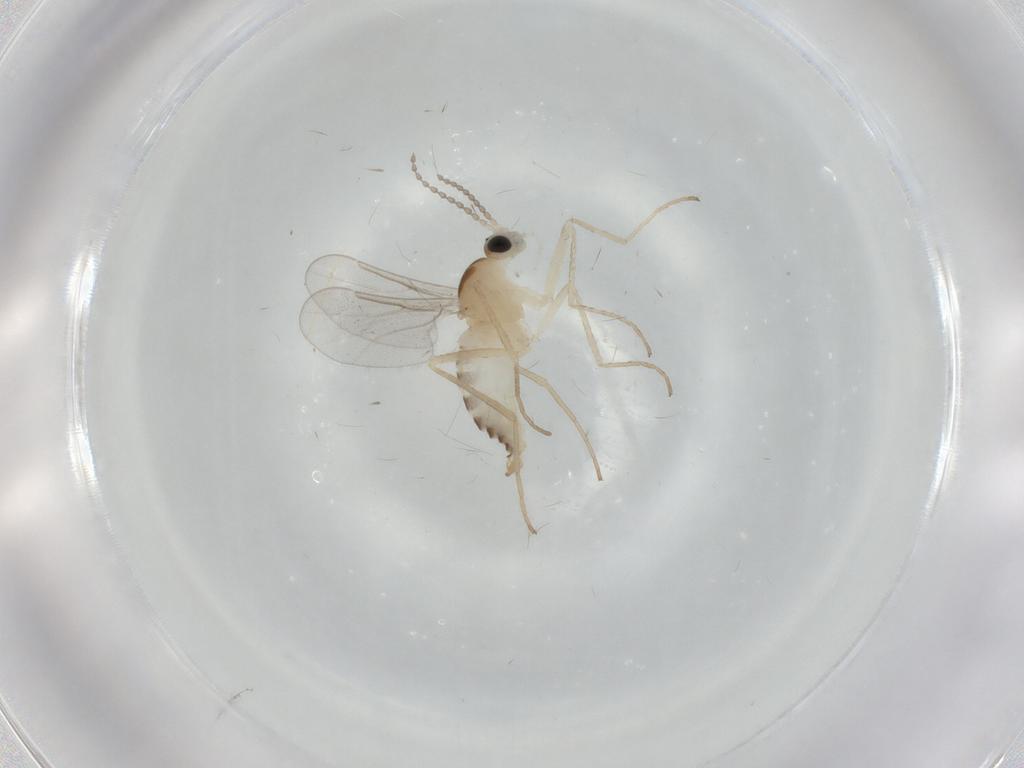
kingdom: Animalia
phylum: Arthropoda
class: Insecta
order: Diptera
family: Cecidomyiidae
